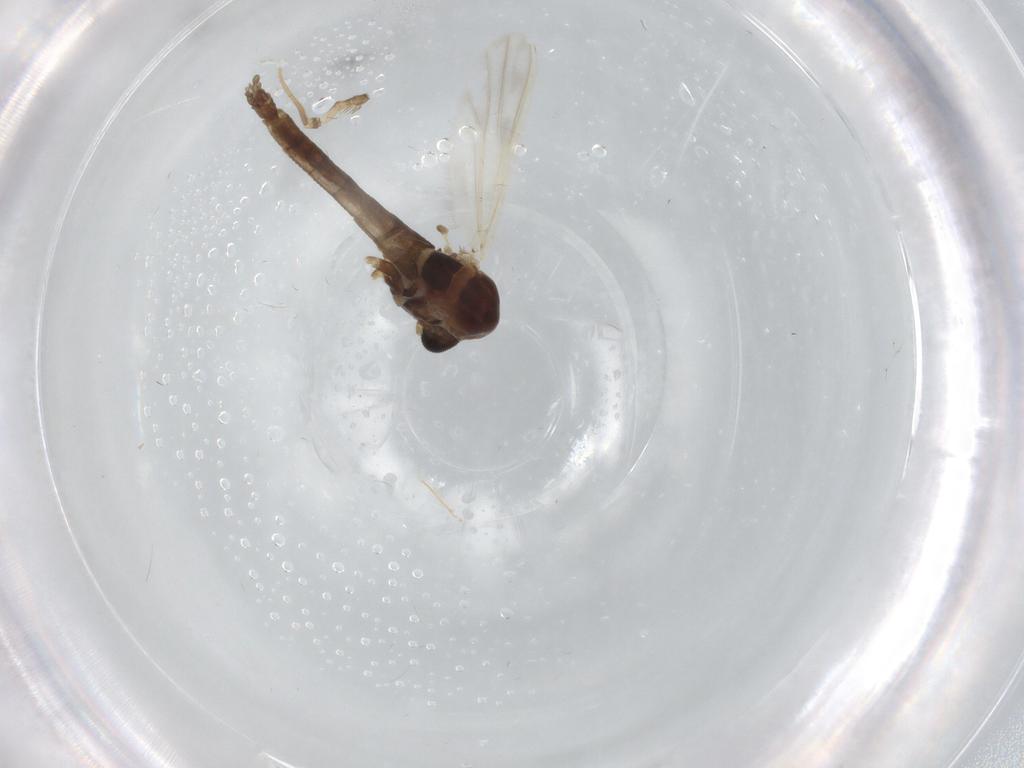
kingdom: Animalia
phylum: Arthropoda
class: Insecta
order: Diptera
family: Chironomidae
